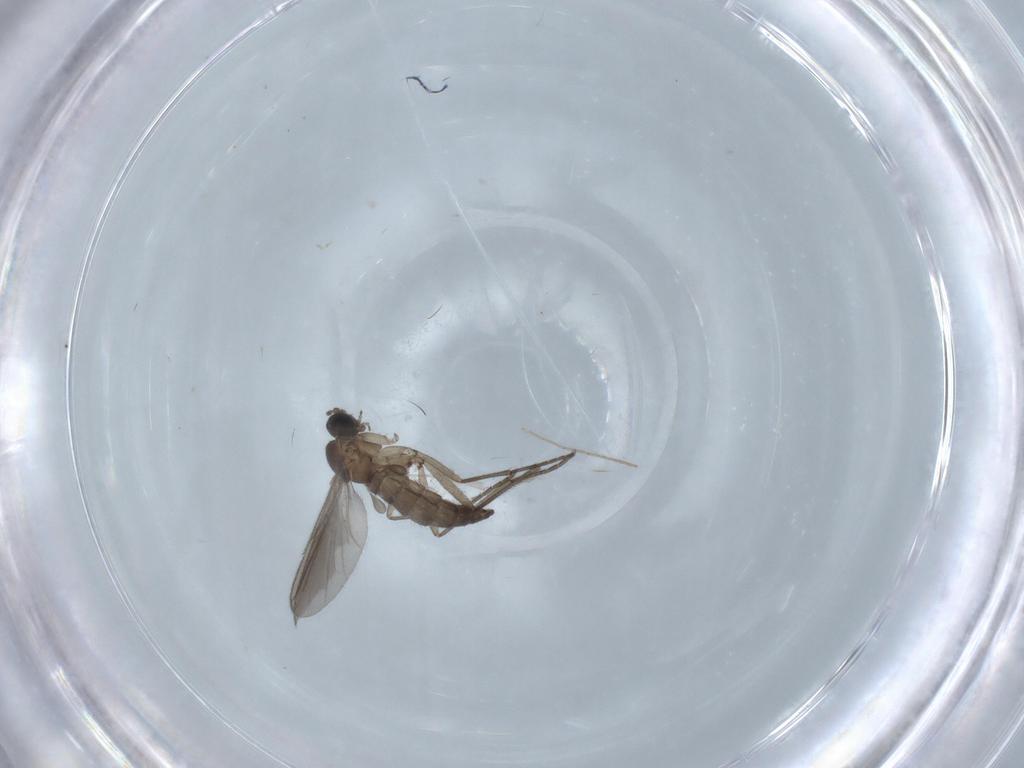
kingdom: Animalia
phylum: Arthropoda
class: Insecta
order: Diptera
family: Sciaridae
